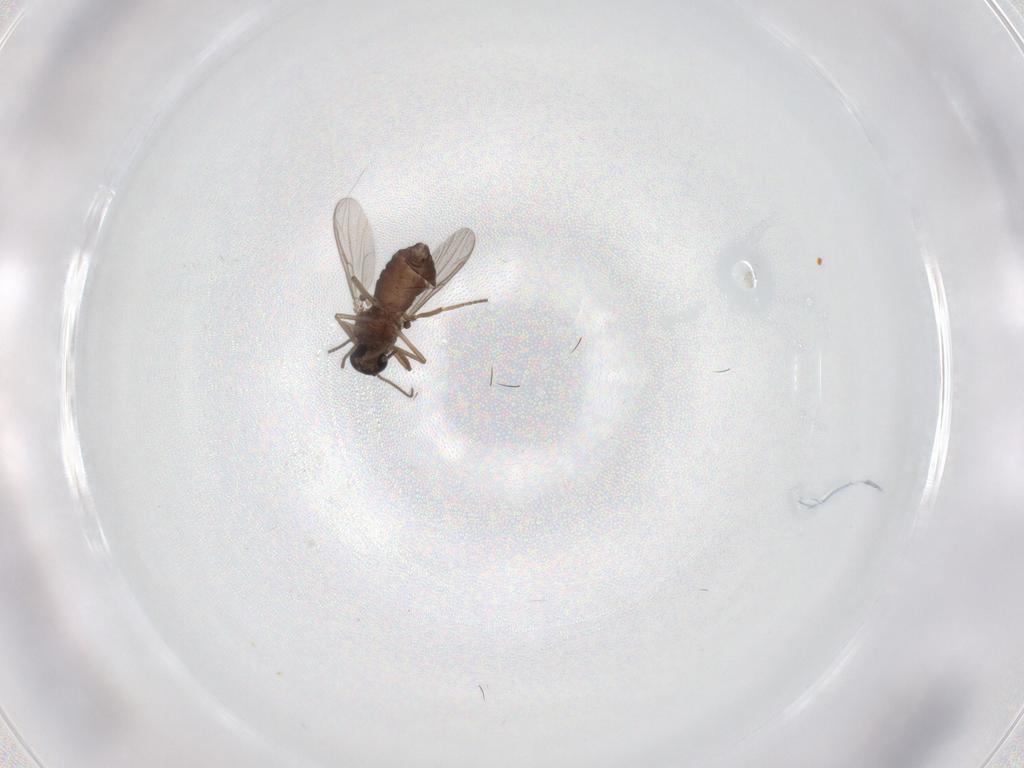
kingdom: Animalia
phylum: Arthropoda
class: Insecta
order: Diptera
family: Ceratopogonidae
